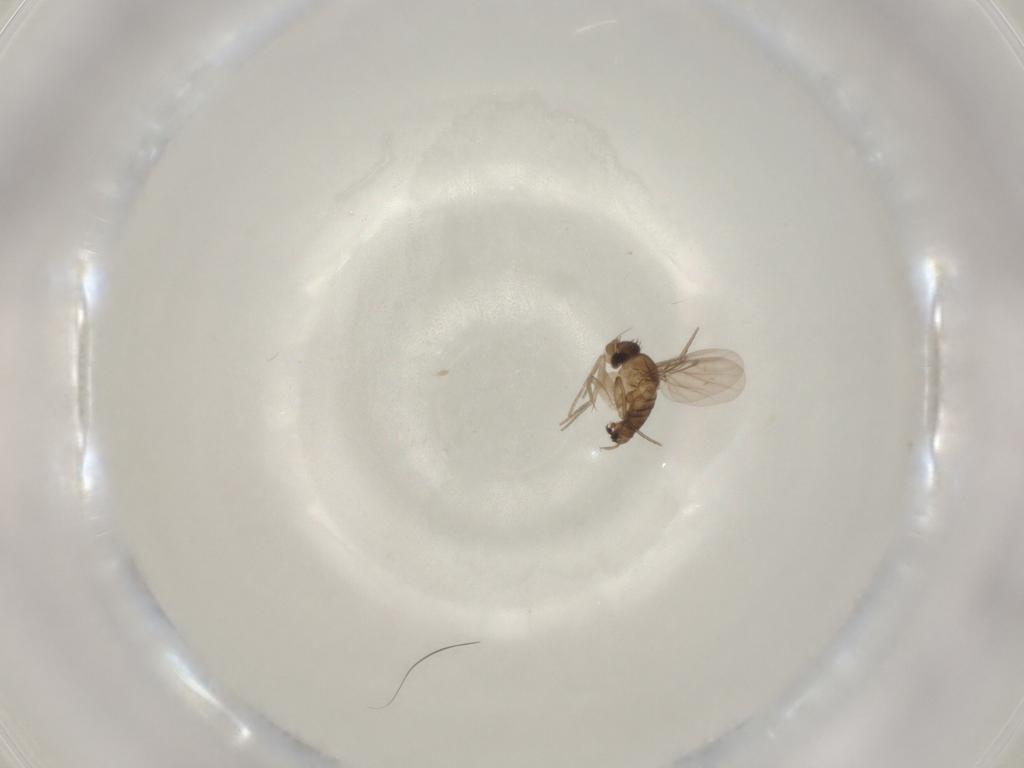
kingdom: Animalia
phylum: Arthropoda
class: Insecta
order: Diptera
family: Phoridae
